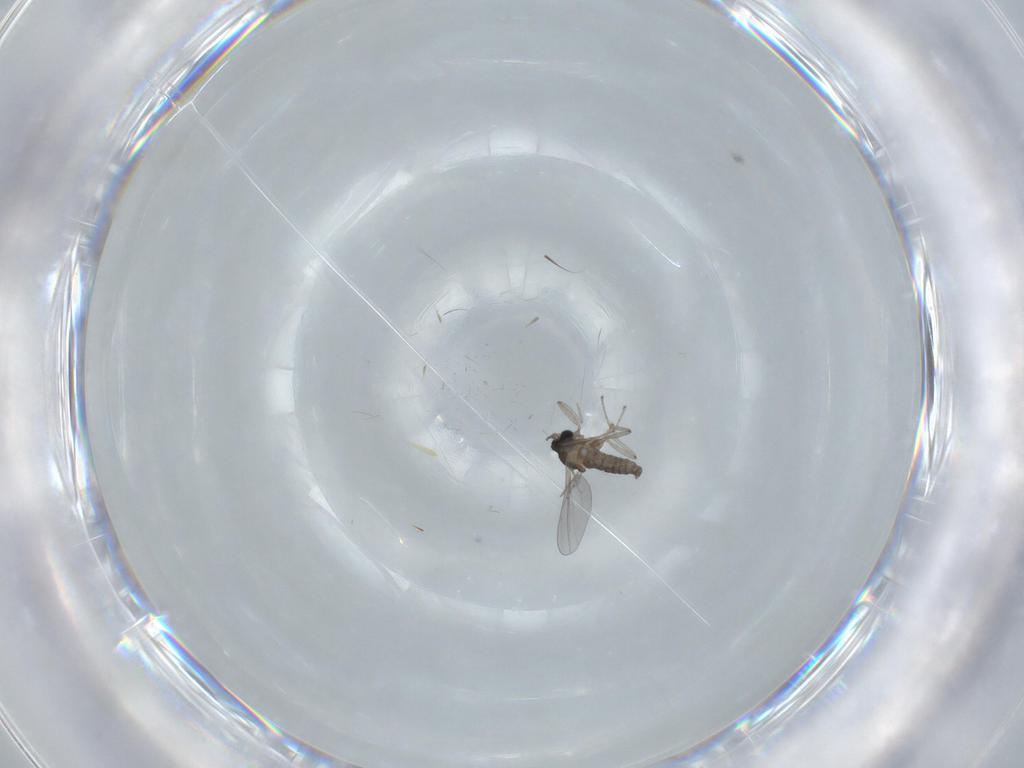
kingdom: Animalia
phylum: Arthropoda
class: Insecta
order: Diptera
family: Cecidomyiidae
